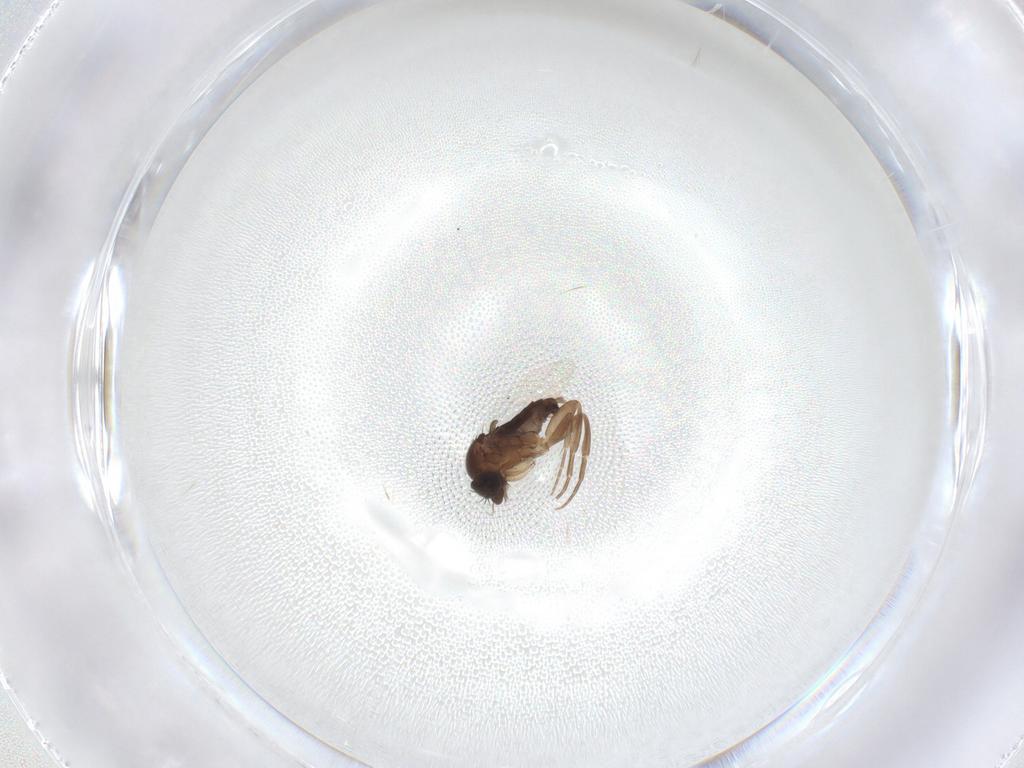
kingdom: Animalia
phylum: Arthropoda
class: Insecta
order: Diptera
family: Phoridae
